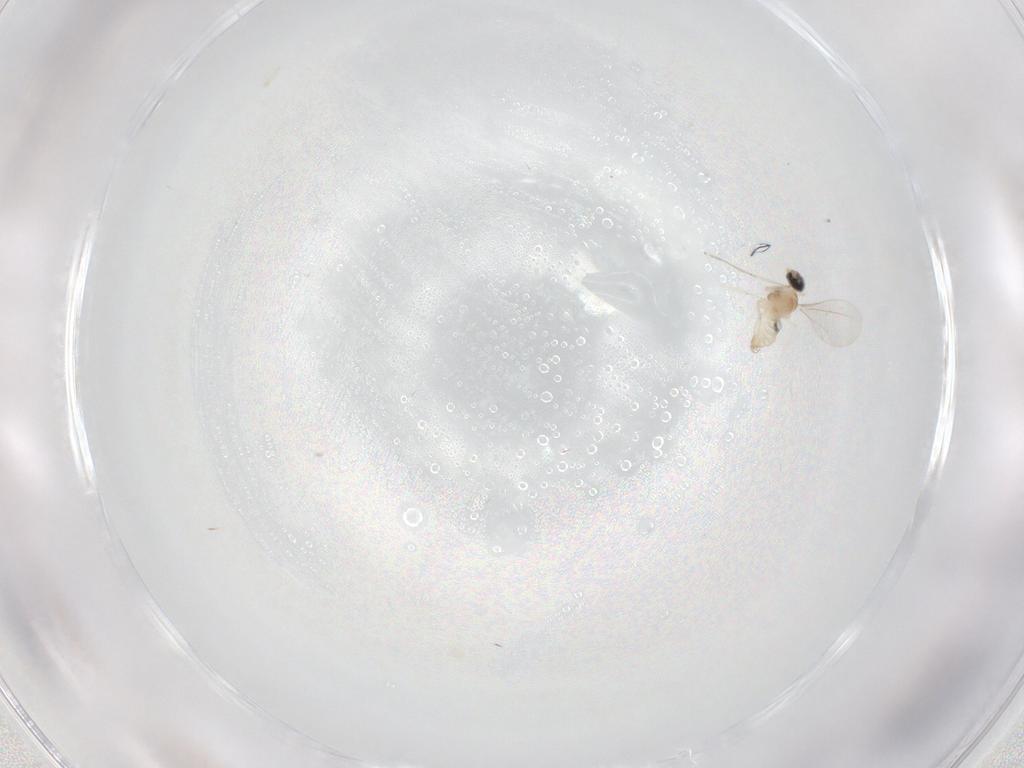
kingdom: Animalia
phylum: Arthropoda
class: Insecta
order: Diptera
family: Cecidomyiidae
